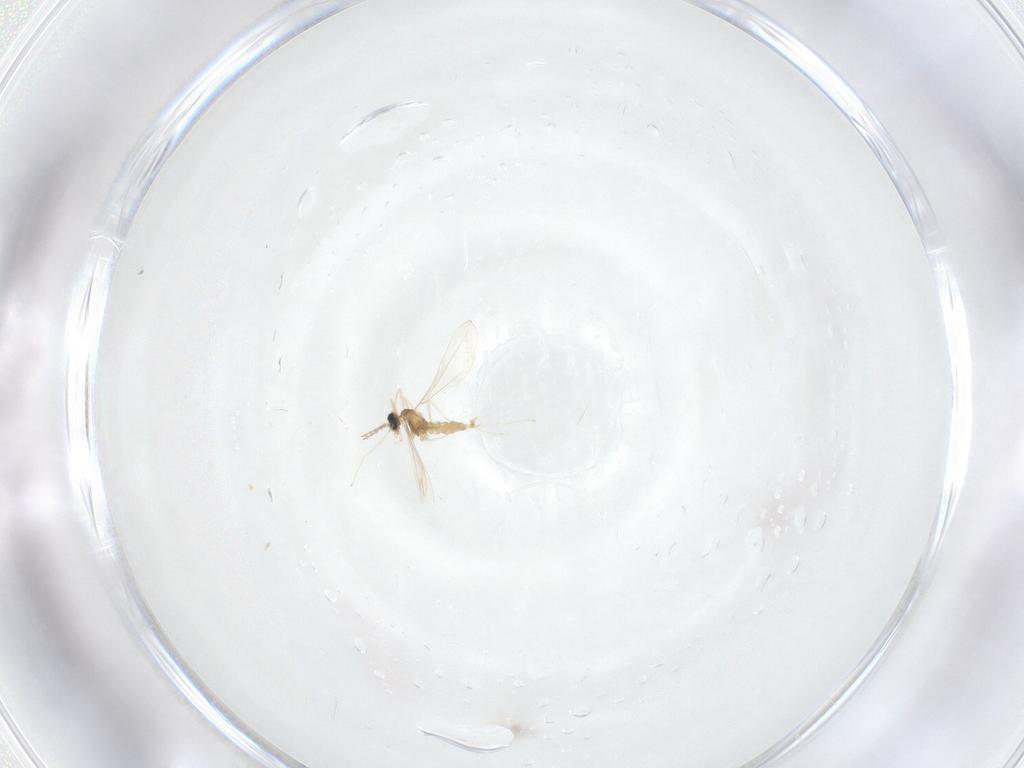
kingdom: Animalia
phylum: Arthropoda
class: Insecta
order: Diptera
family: Cecidomyiidae
